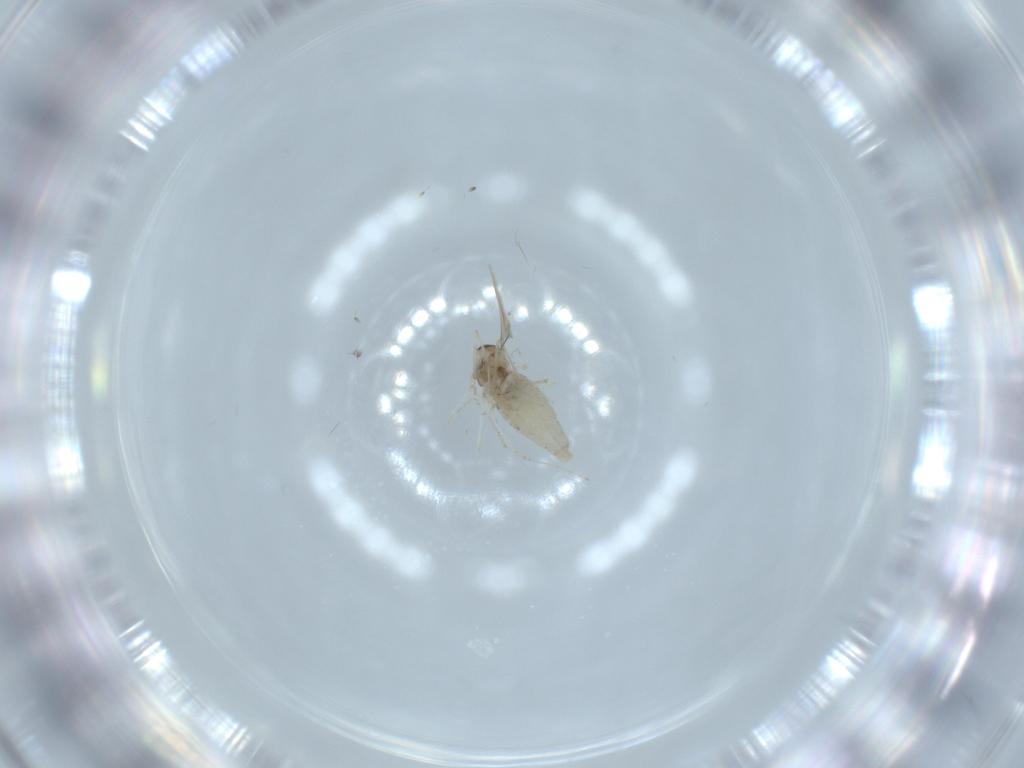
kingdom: Animalia
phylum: Arthropoda
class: Insecta
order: Diptera
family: Cecidomyiidae
